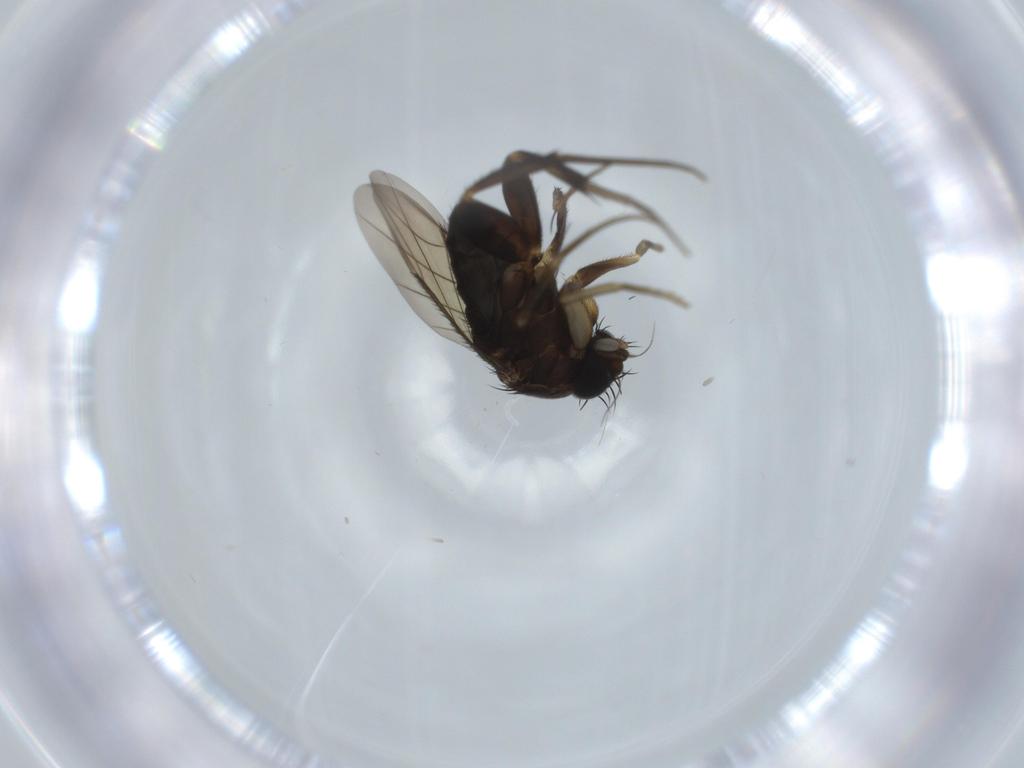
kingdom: Animalia
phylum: Arthropoda
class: Insecta
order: Diptera
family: Phoridae
